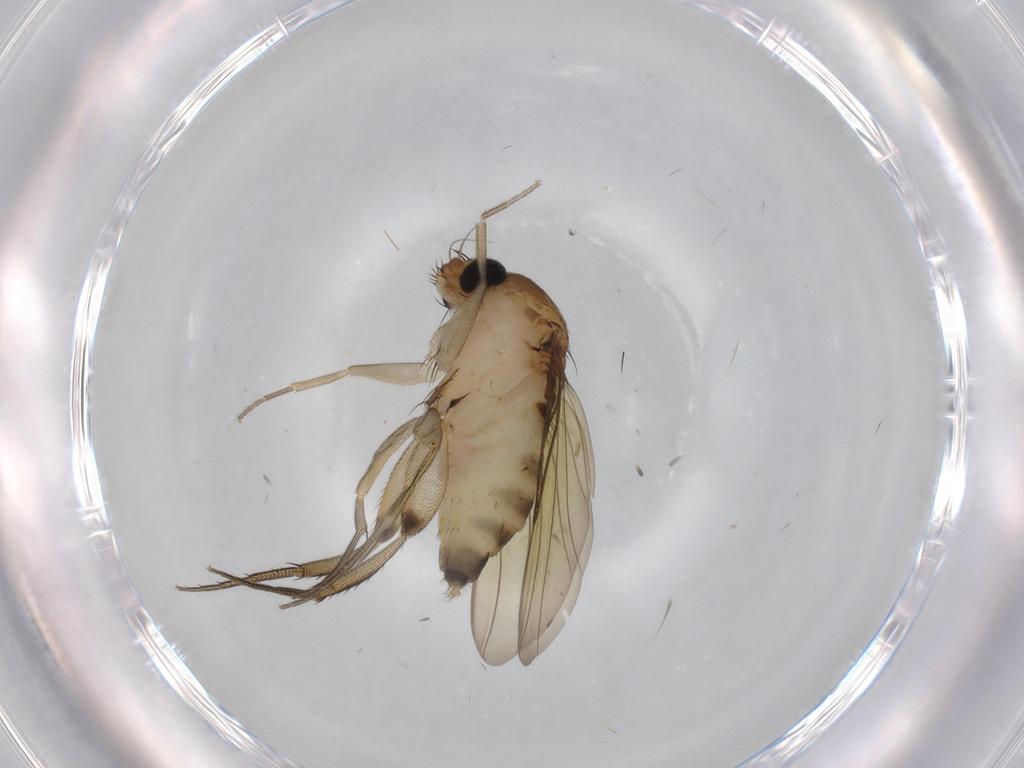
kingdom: Animalia
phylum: Arthropoda
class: Insecta
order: Diptera
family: Phoridae
